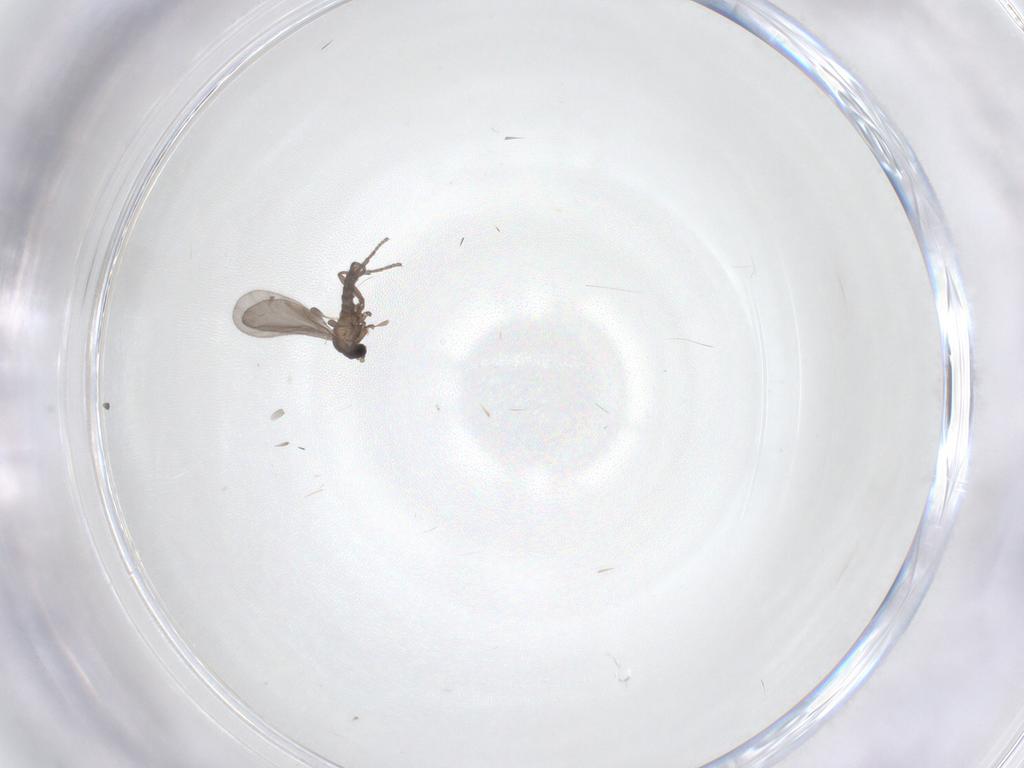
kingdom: Animalia
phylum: Arthropoda
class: Insecta
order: Diptera
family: Sciaridae
